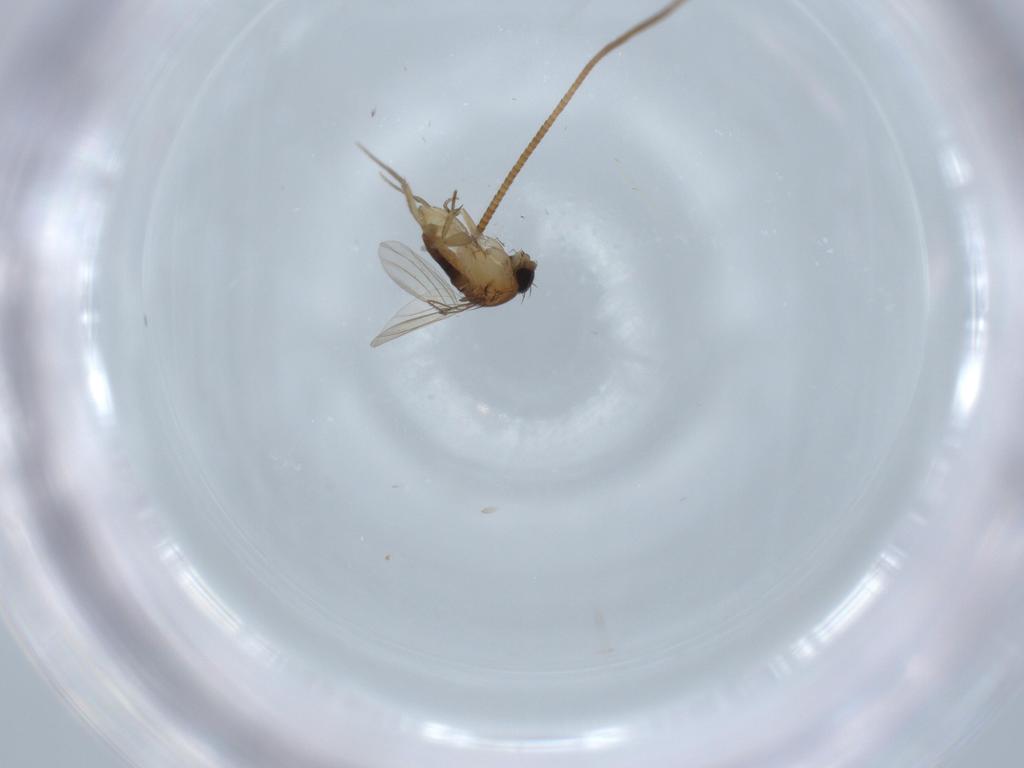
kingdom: Animalia
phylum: Arthropoda
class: Insecta
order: Diptera
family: Phoridae
